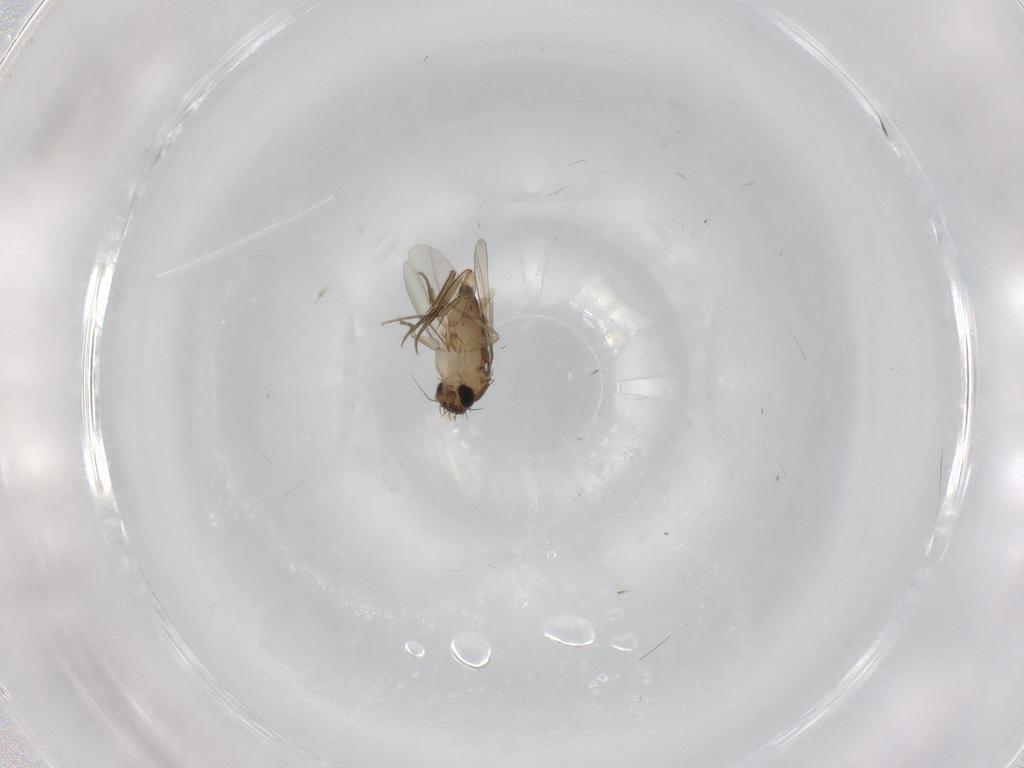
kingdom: Animalia
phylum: Arthropoda
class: Insecta
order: Diptera
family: Phoridae
